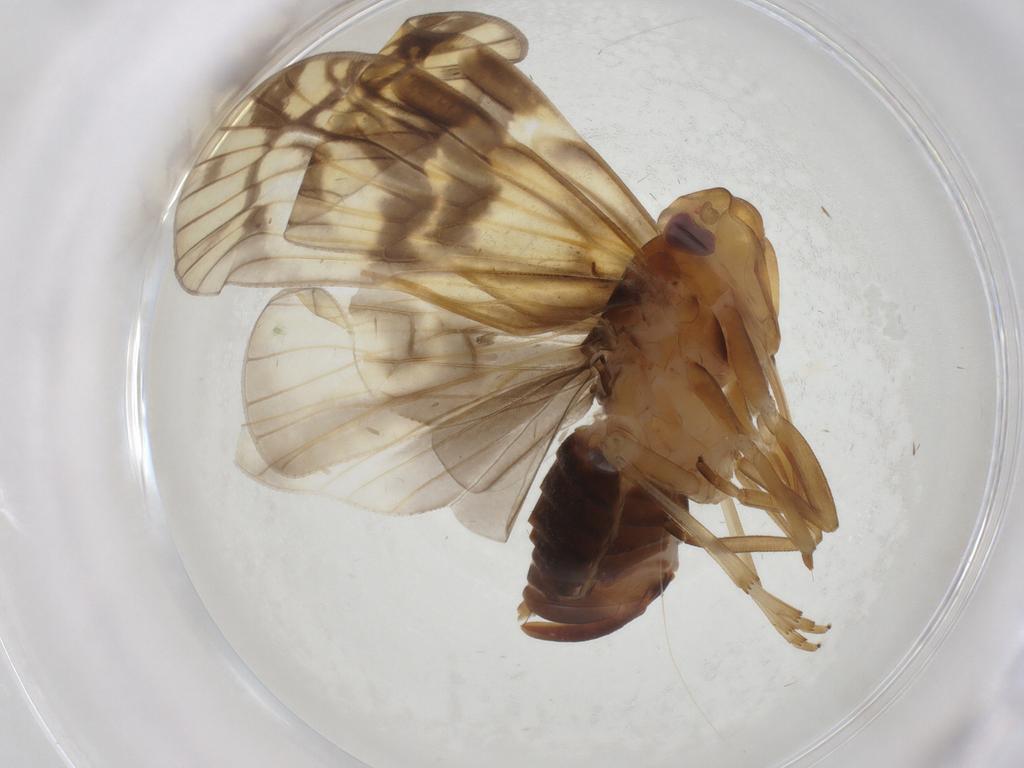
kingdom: Animalia
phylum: Arthropoda
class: Insecta
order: Hemiptera
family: Cixiidae
